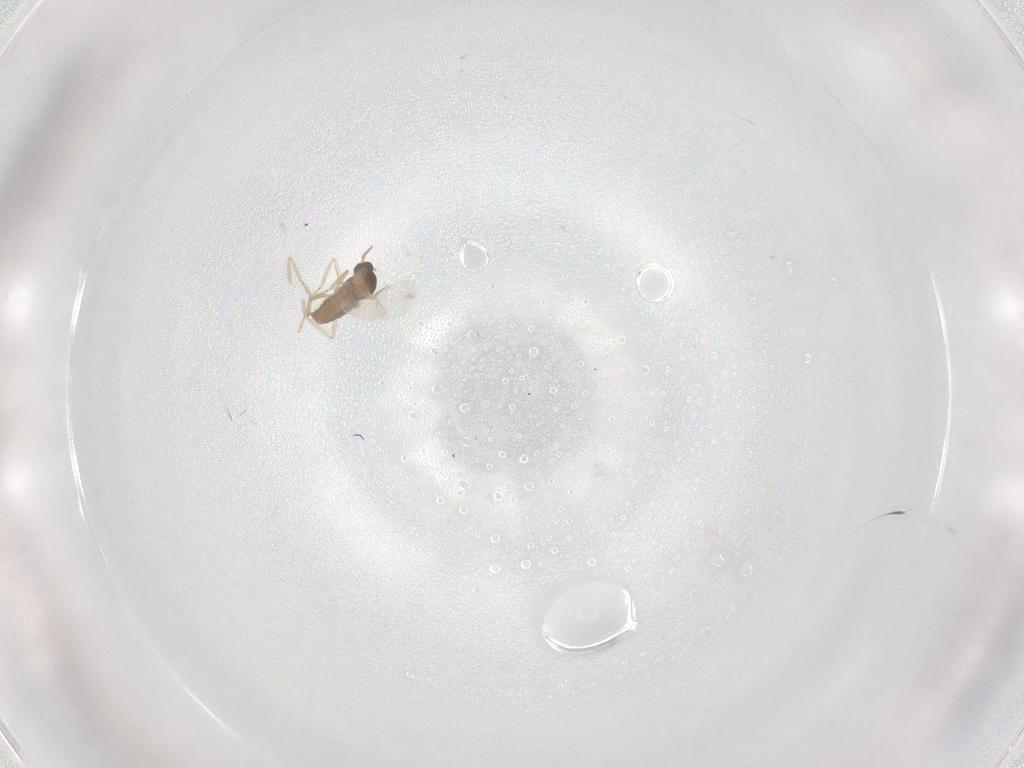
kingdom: Animalia
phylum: Arthropoda
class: Insecta
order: Diptera
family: Cecidomyiidae
